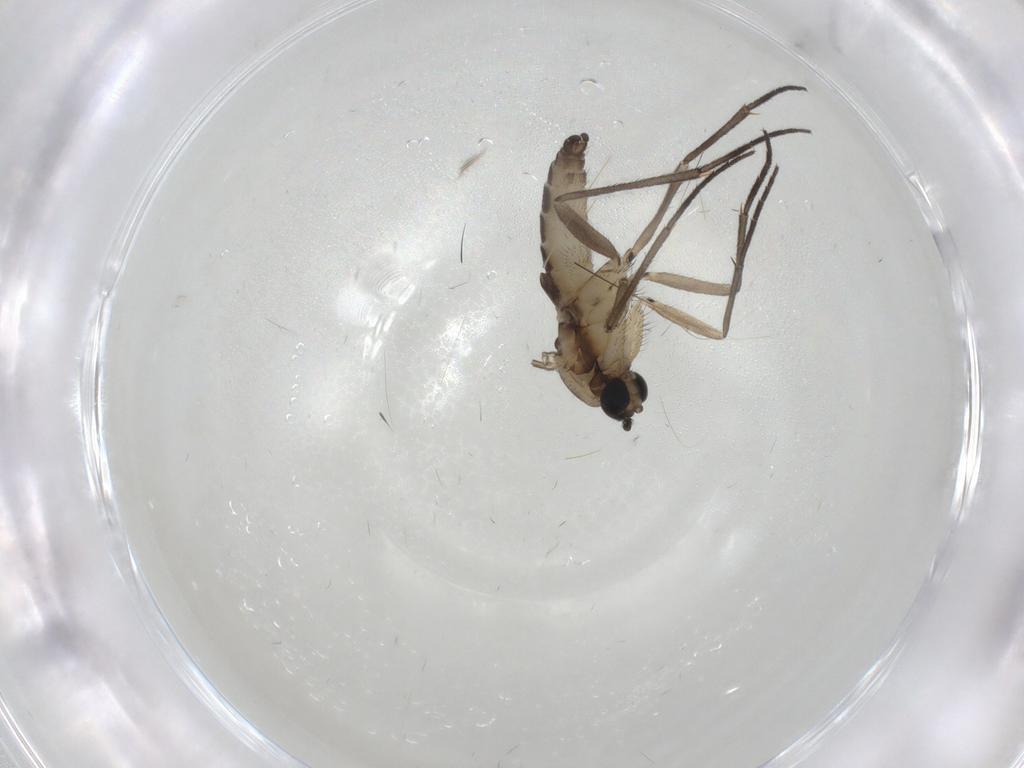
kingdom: Animalia
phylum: Arthropoda
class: Insecta
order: Diptera
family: Sciaridae
